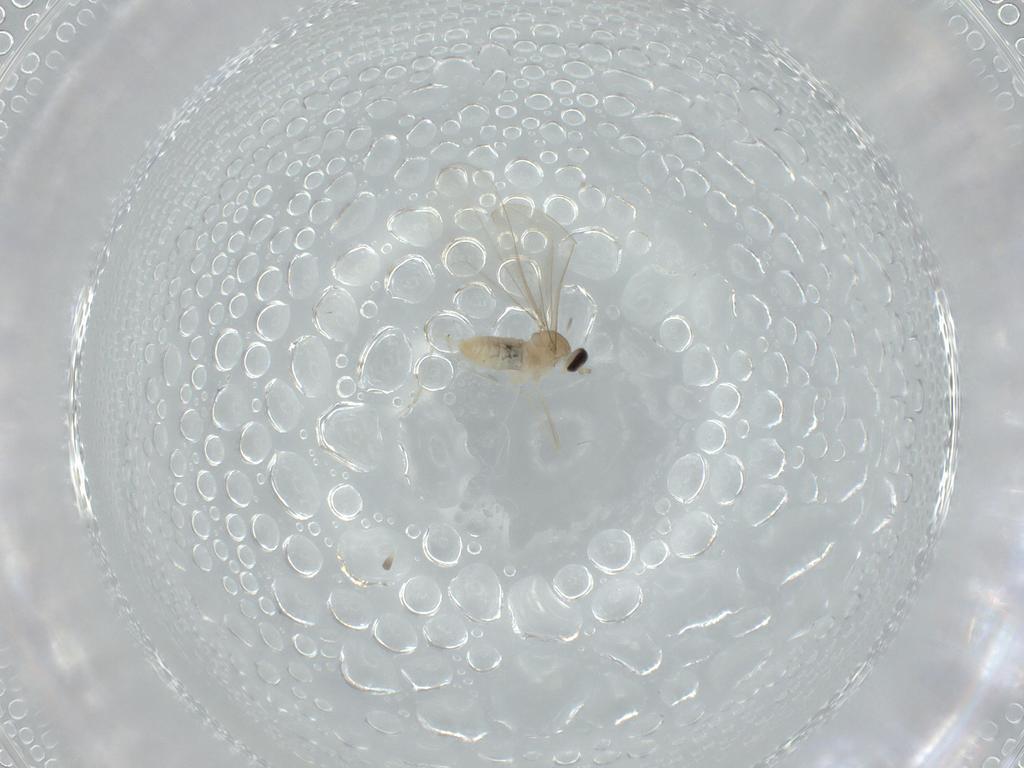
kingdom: Animalia
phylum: Arthropoda
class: Insecta
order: Diptera
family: Cecidomyiidae
